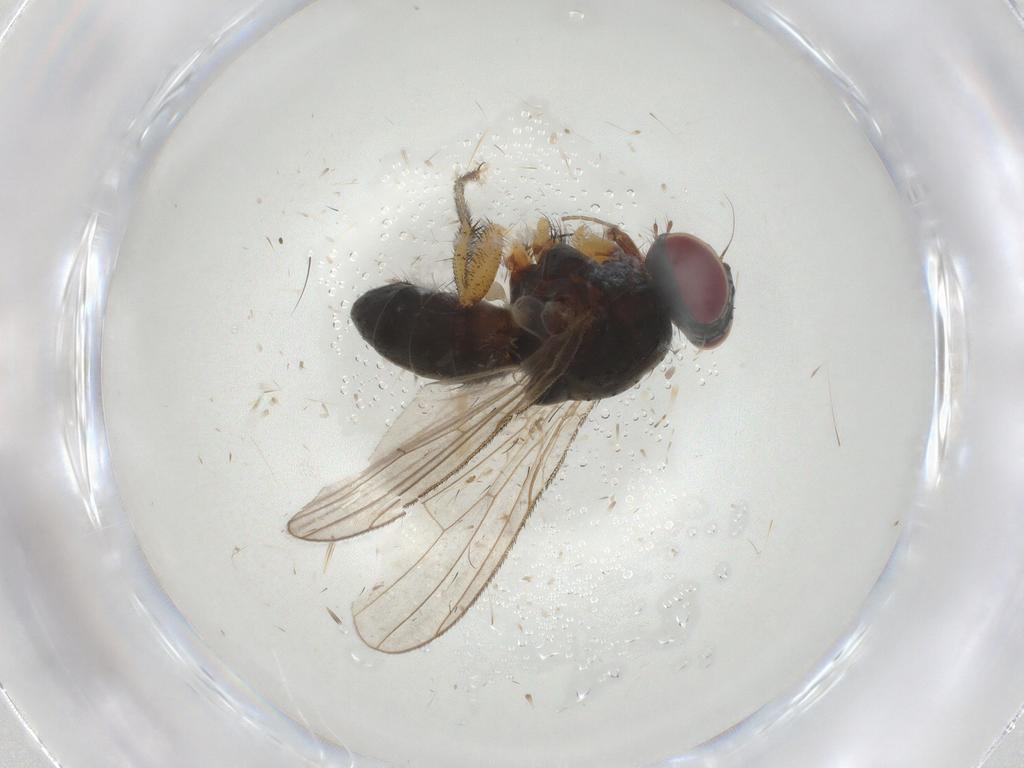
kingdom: Animalia
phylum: Arthropoda
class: Insecta
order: Diptera
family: Muscidae
